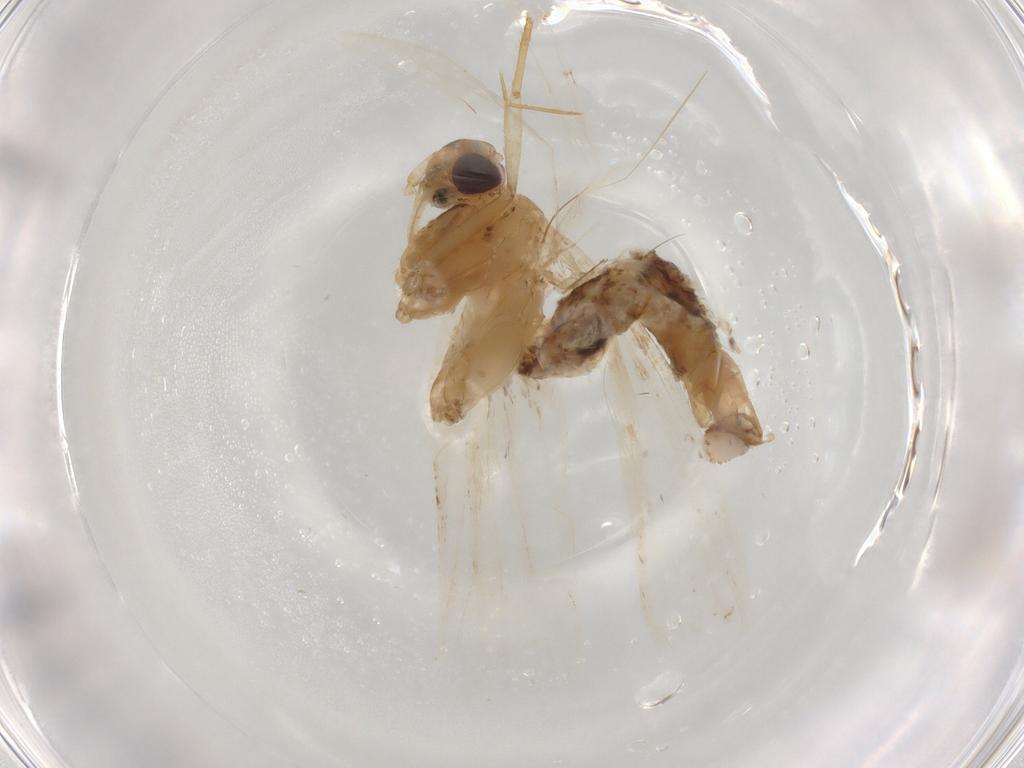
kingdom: Animalia
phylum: Arthropoda
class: Insecta
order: Lepidoptera
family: Lecithoceridae
